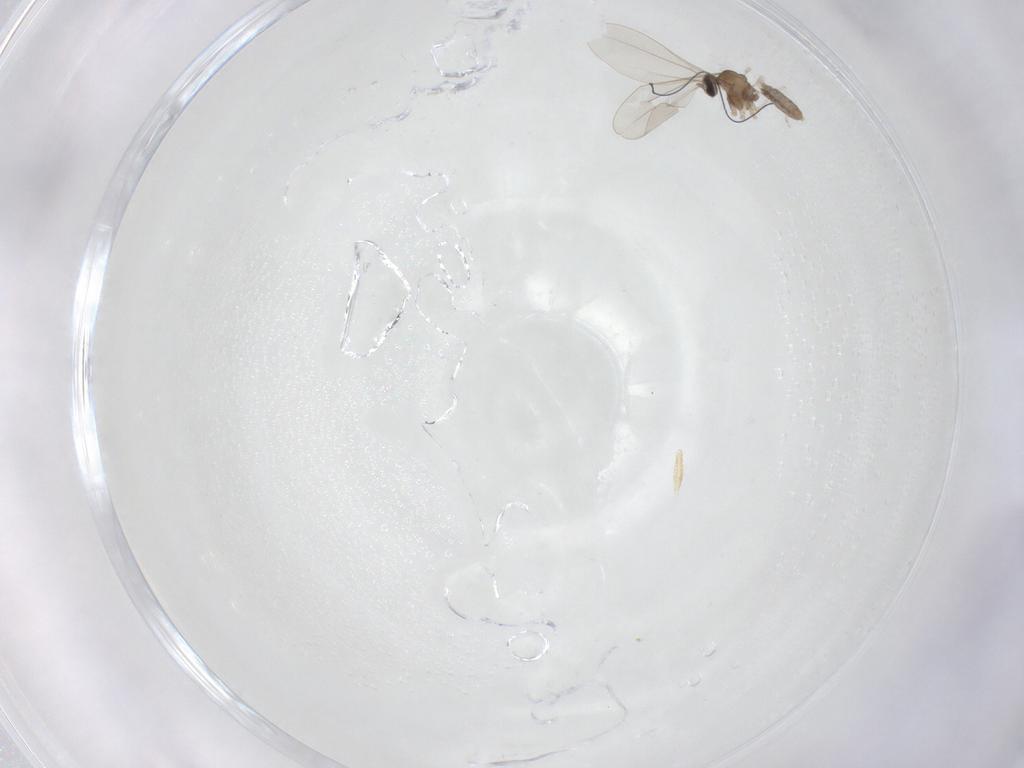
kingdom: Animalia
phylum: Arthropoda
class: Insecta
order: Diptera
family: Cecidomyiidae
